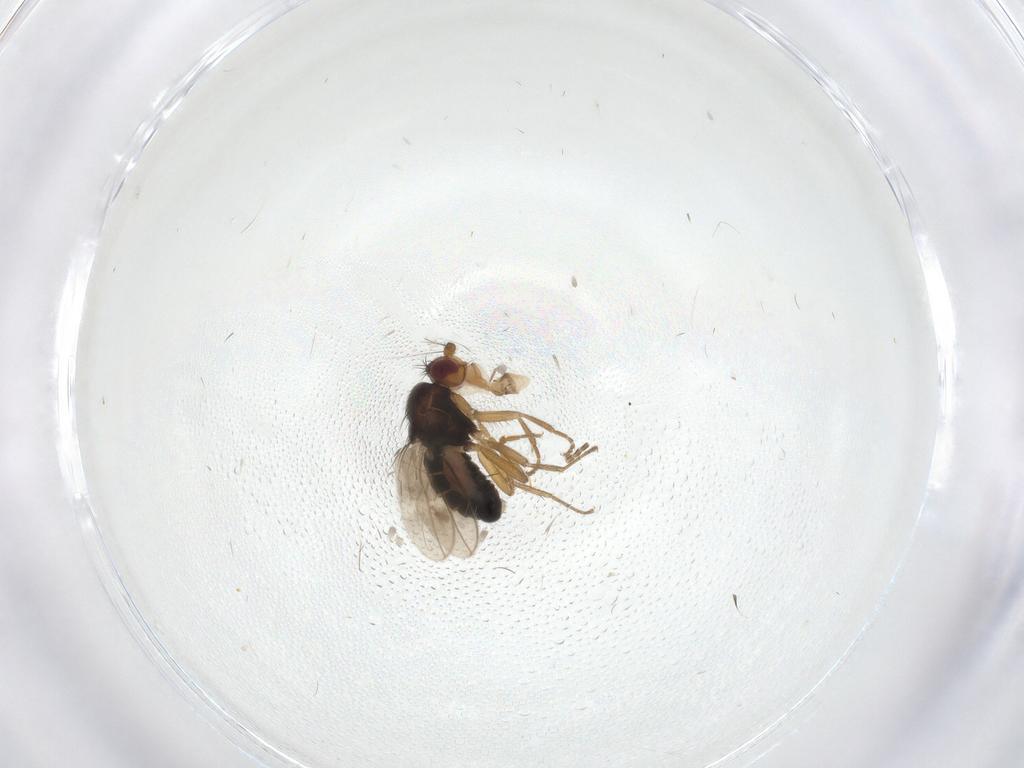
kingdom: Animalia
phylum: Arthropoda
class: Insecta
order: Diptera
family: Sphaeroceridae
